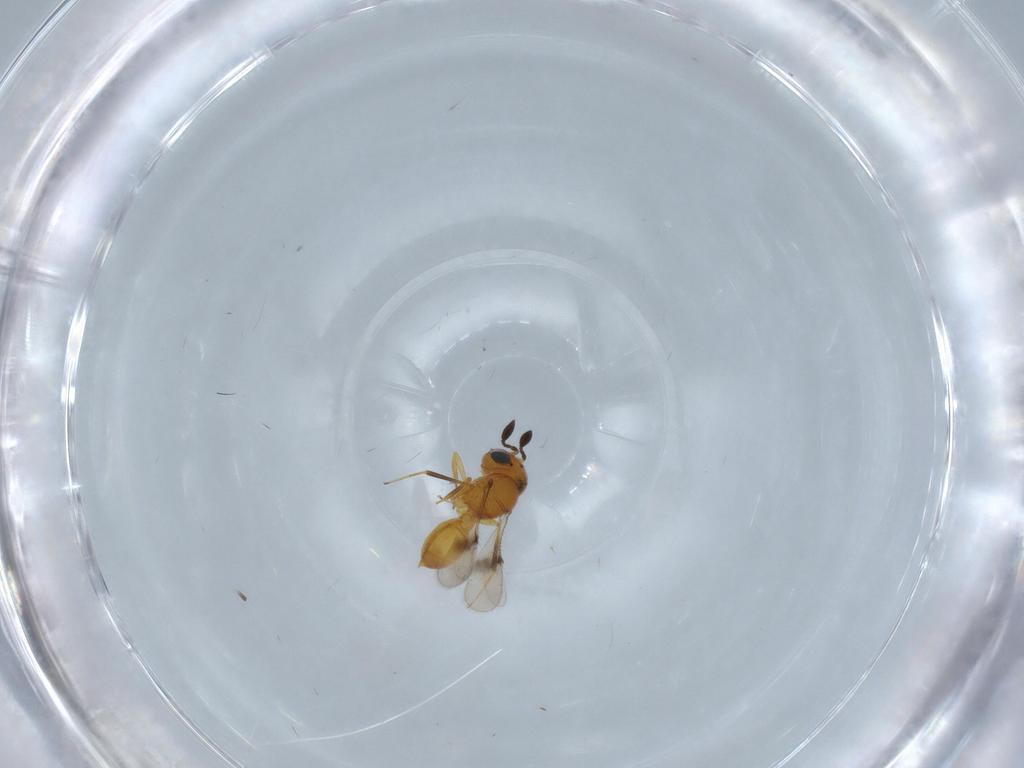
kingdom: Animalia
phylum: Arthropoda
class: Insecta
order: Hymenoptera
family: Scelionidae
